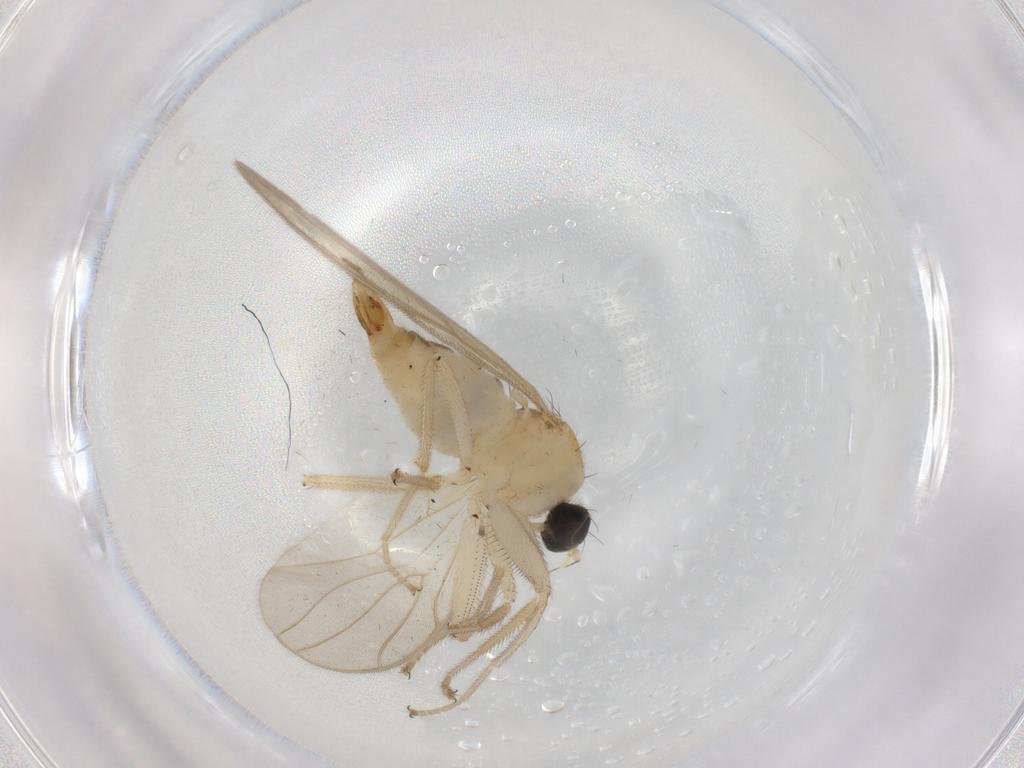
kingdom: Animalia
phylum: Arthropoda
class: Insecta
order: Diptera
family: Hybotidae
